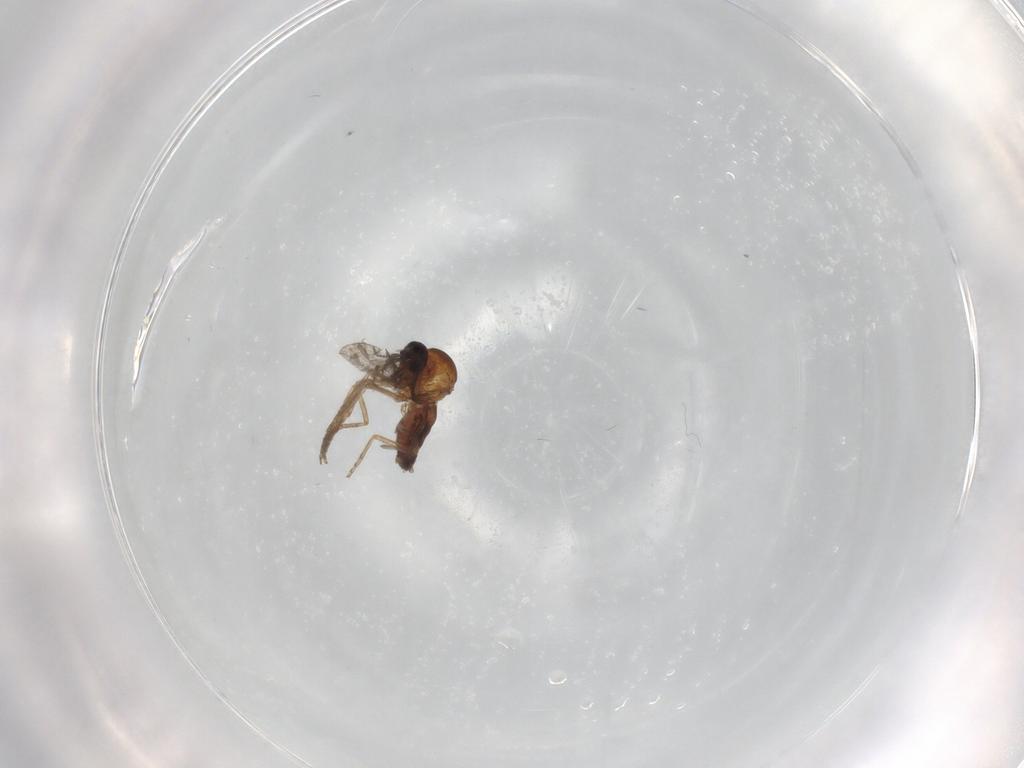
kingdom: Animalia
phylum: Arthropoda
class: Insecta
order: Diptera
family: Ceratopogonidae
